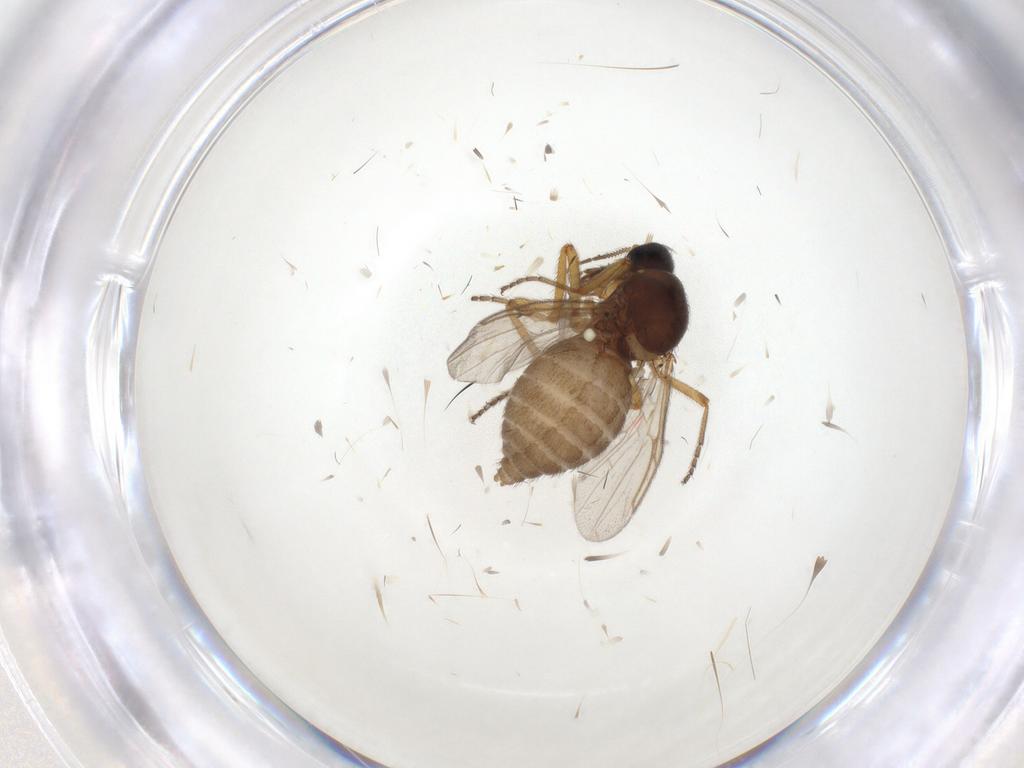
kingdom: Animalia
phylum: Arthropoda
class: Insecta
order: Diptera
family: Ceratopogonidae
